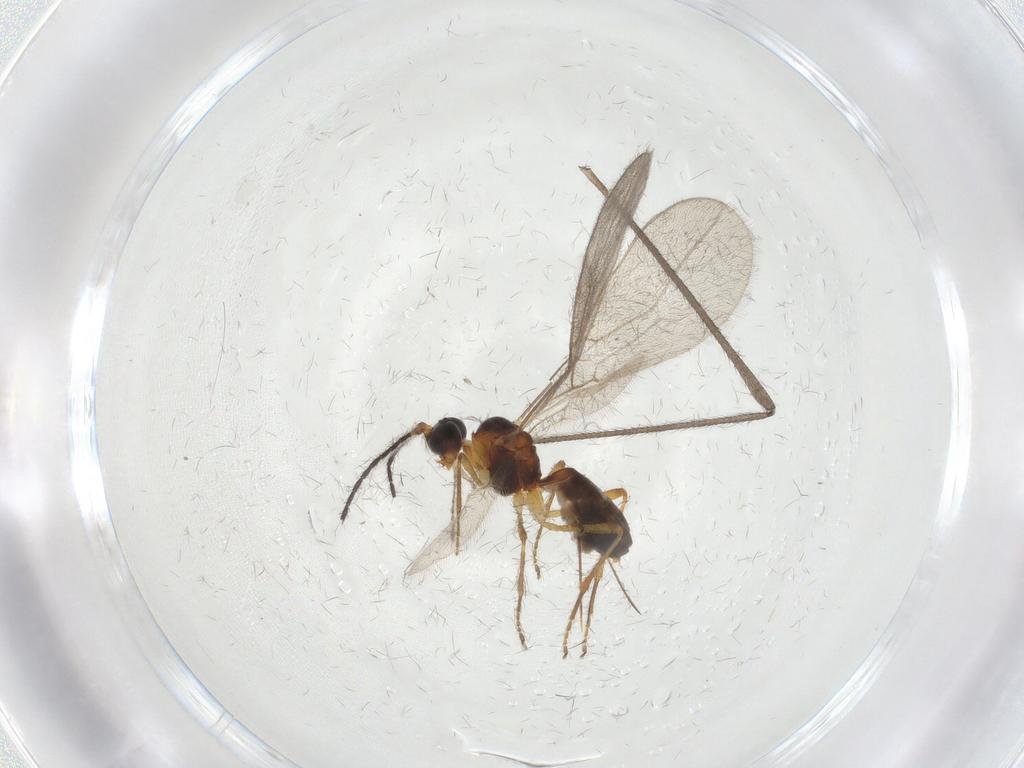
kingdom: Animalia
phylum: Arthropoda
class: Insecta
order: Hymenoptera
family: Braconidae
